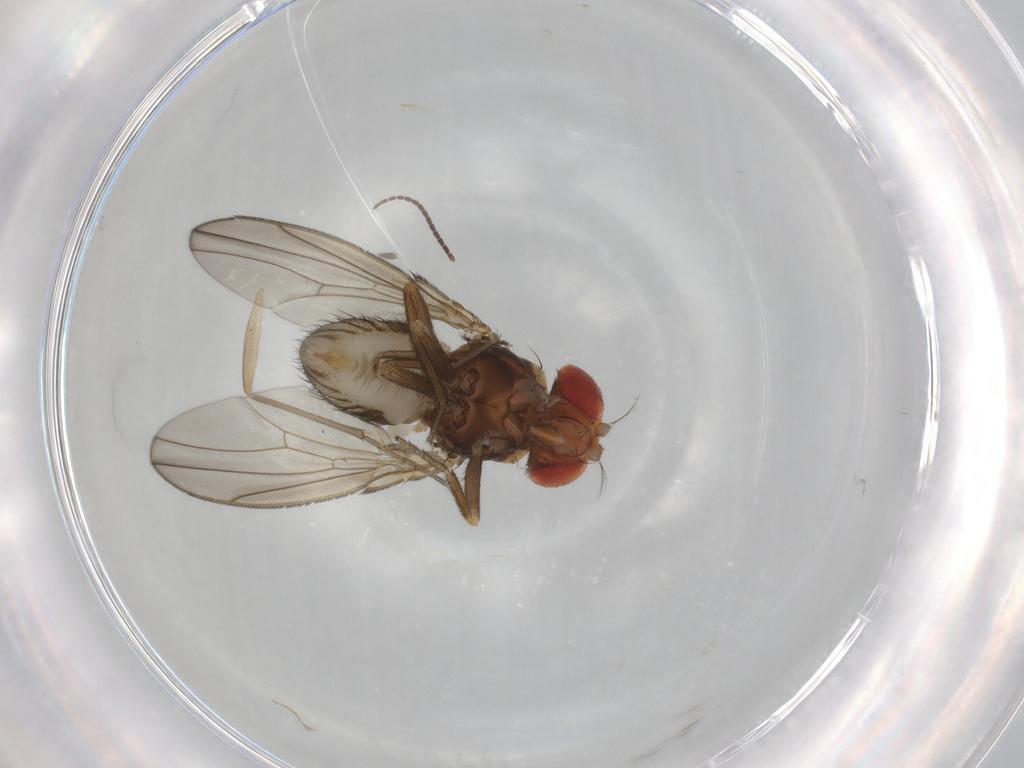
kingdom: Animalia
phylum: Arthropoda
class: Insecta
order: Diptera
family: Drosophilidae
